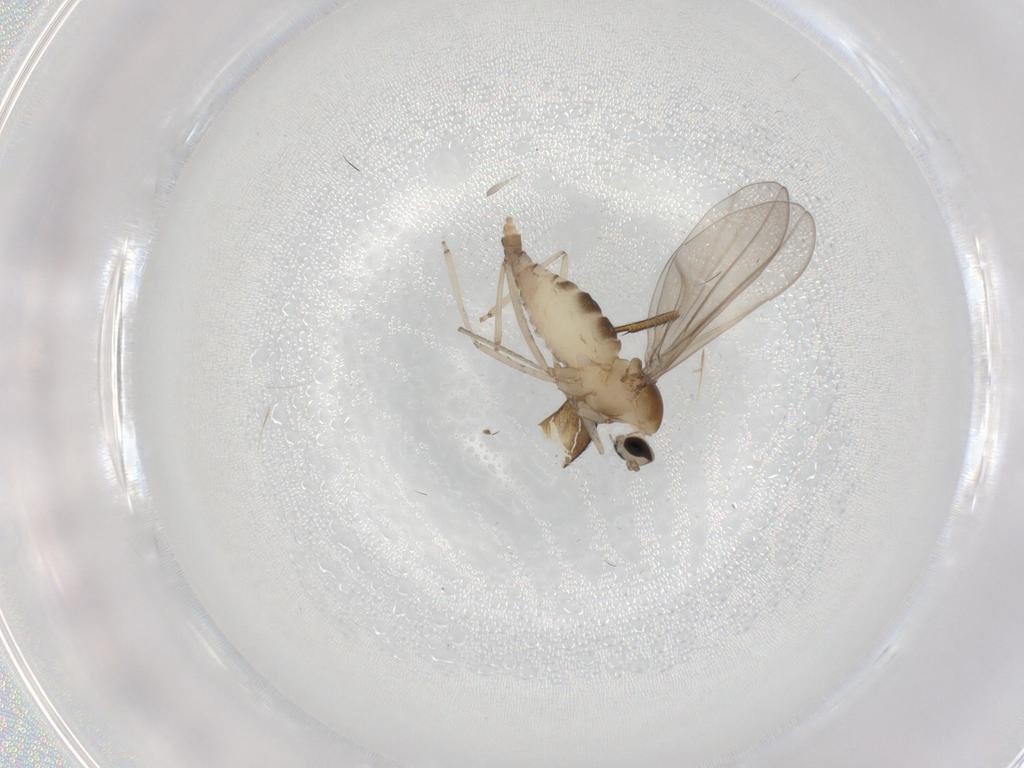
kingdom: Animalia
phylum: Arthropoda
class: Insecta
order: Diptera
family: Cecidomyiidae
